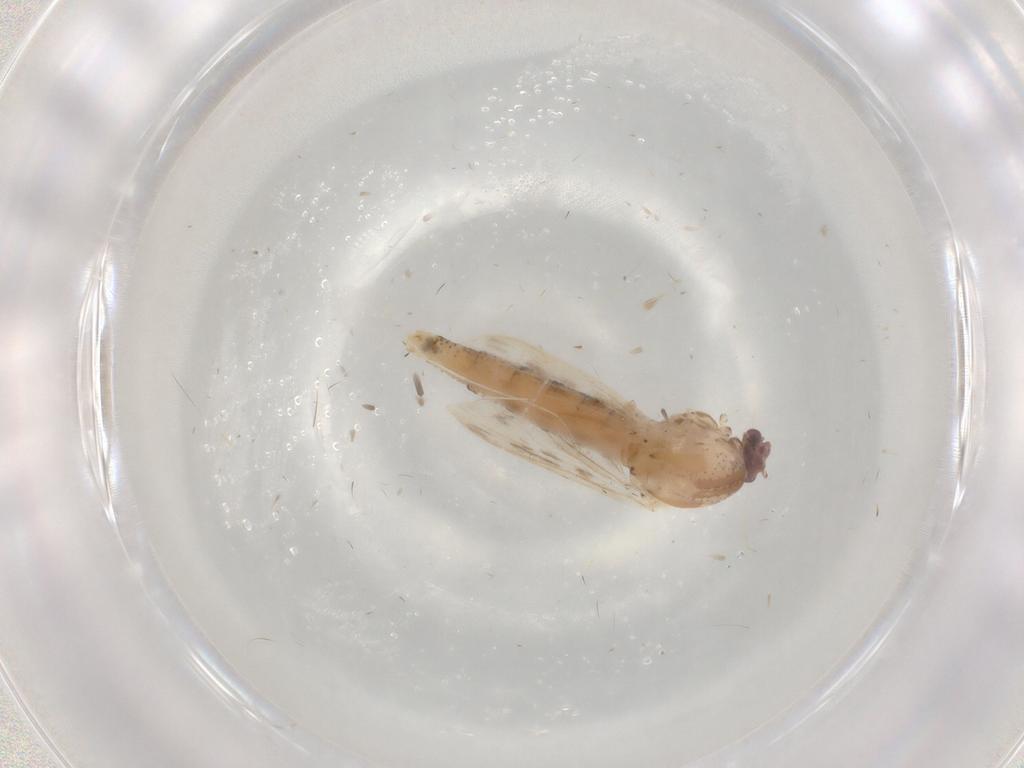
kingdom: Animalia
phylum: Arthropoda
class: Insecta
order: Diptera
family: Chaoboridae
